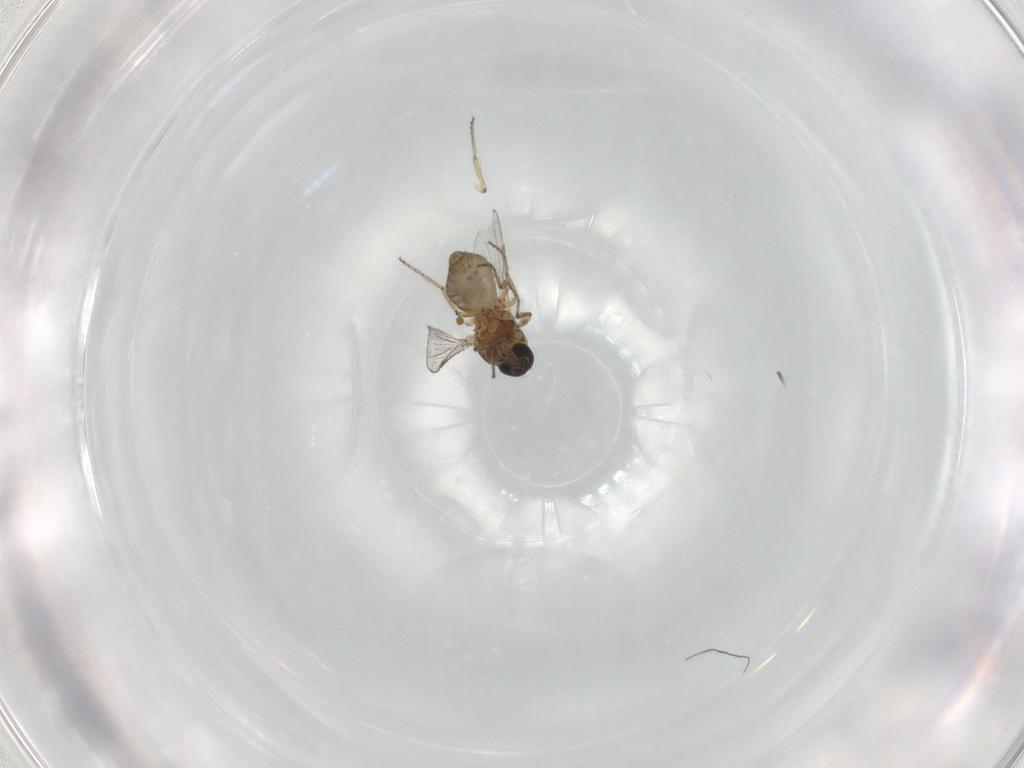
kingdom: Animalia
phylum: Arthropoda
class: Insecta
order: Diptera
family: Ceratopogonidae
